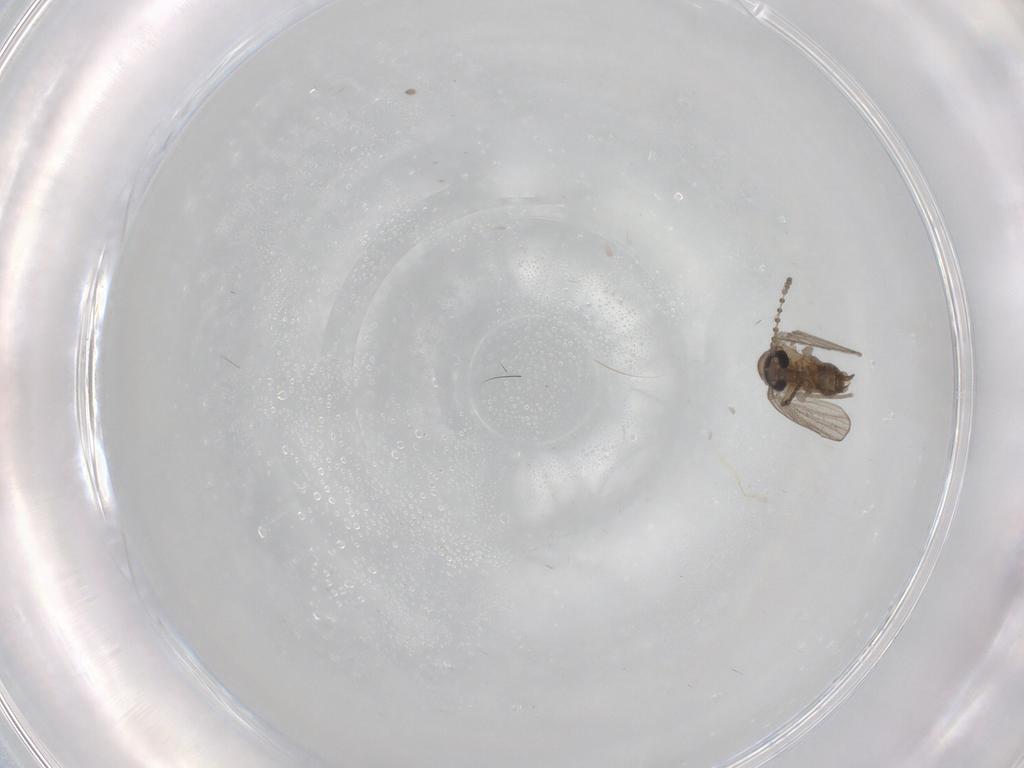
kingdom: Animalia
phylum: Arthropoda
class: Insecta
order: Diptera
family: Psychodidae
